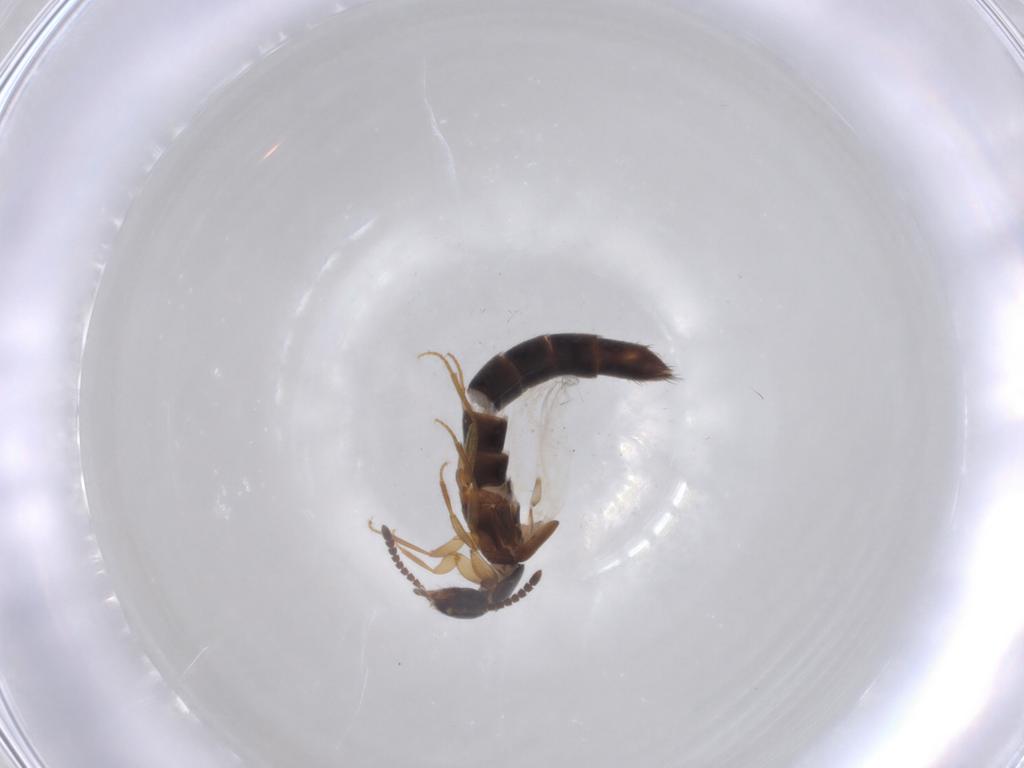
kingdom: Animalia
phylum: Arthropoda
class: Insecta
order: Coleoptera
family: Staphylinidae
